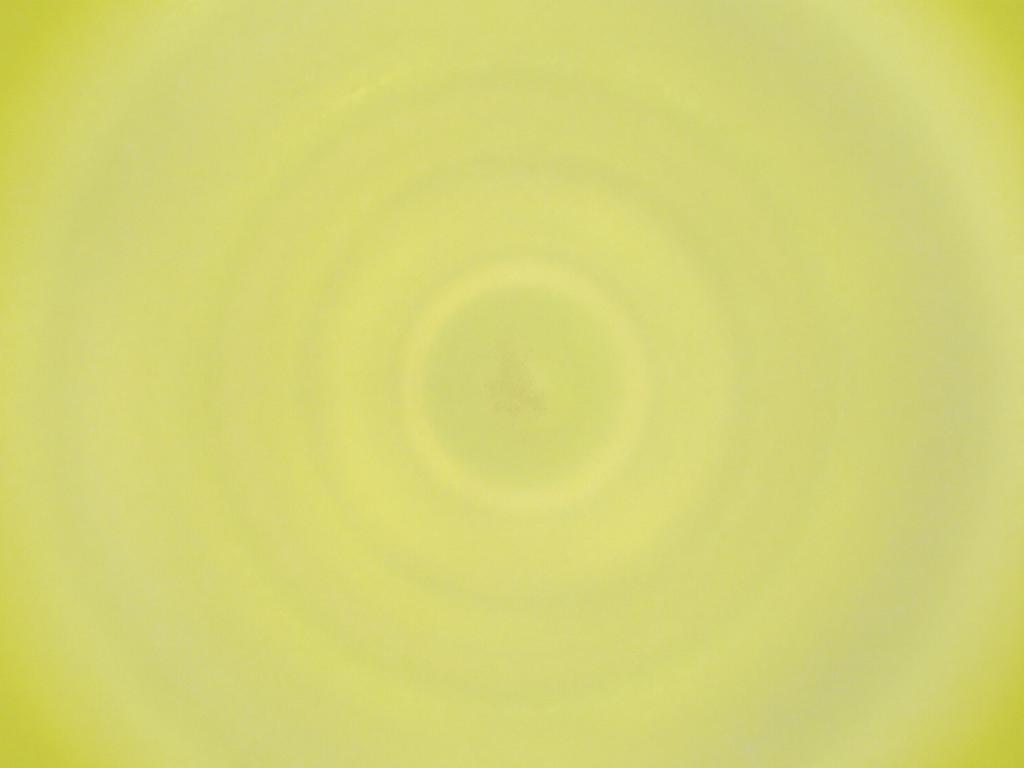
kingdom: Animalia
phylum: Arthropoda
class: Insecta
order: Diptera
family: Cecidomyiidae
